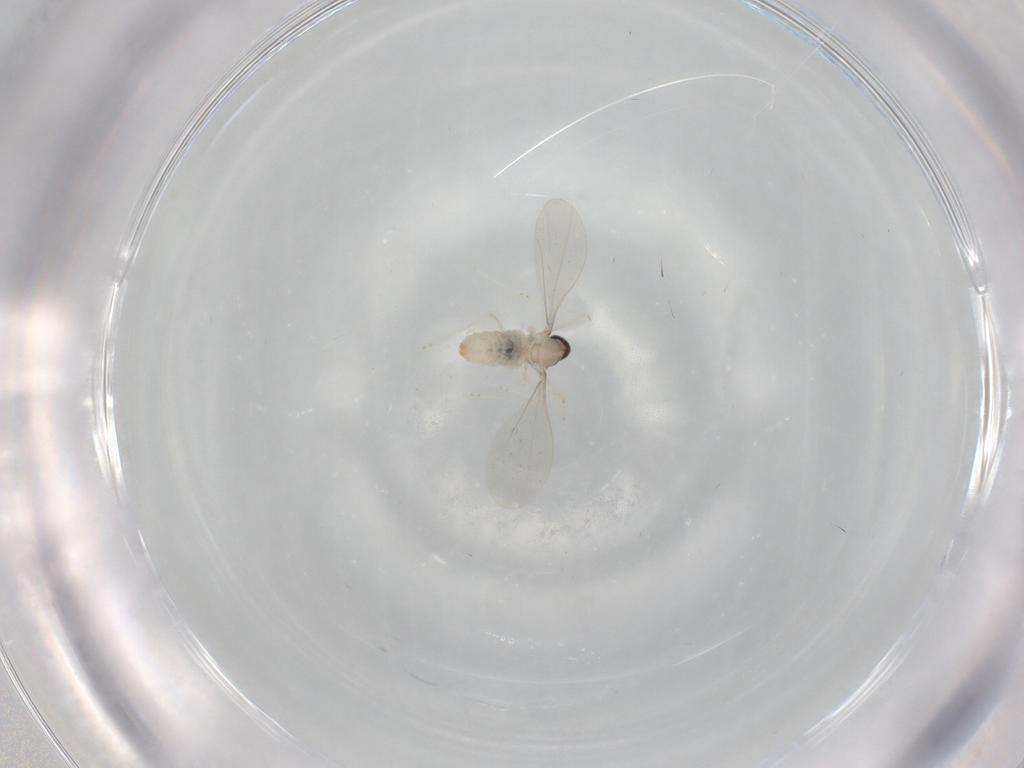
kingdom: Animalia
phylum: Arthropoda
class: Insecta
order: Diptera
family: Cecidomyiidae
